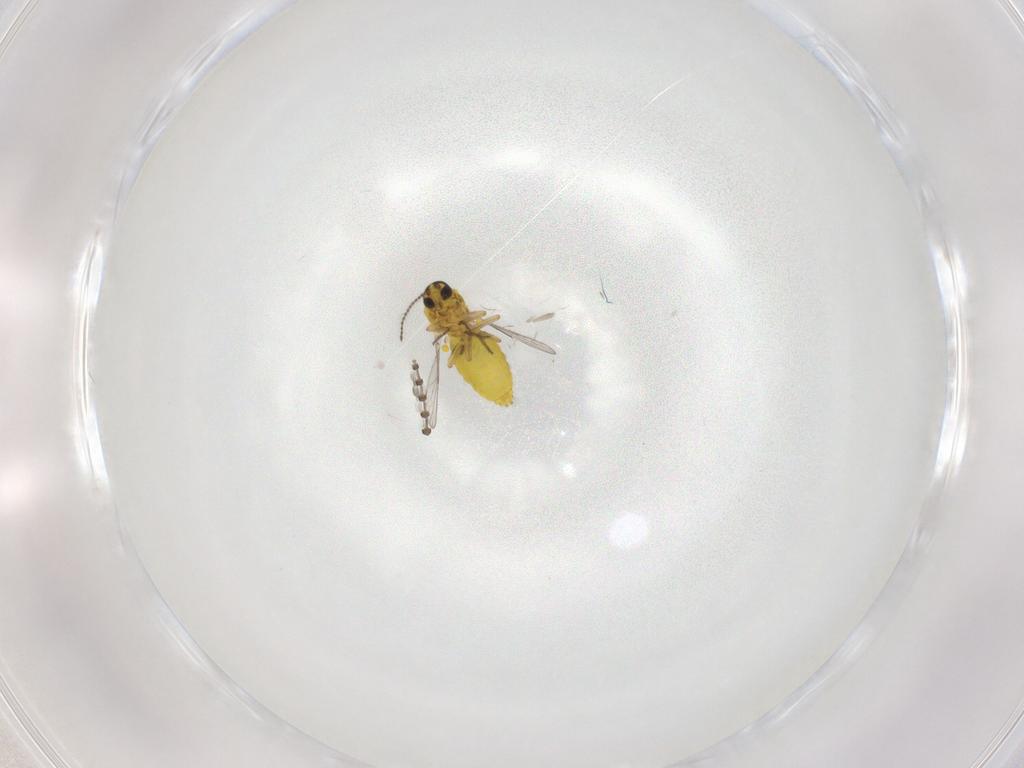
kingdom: Animalia
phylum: Arthropoda
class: Insecta
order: Diptera
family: Psychodidae
